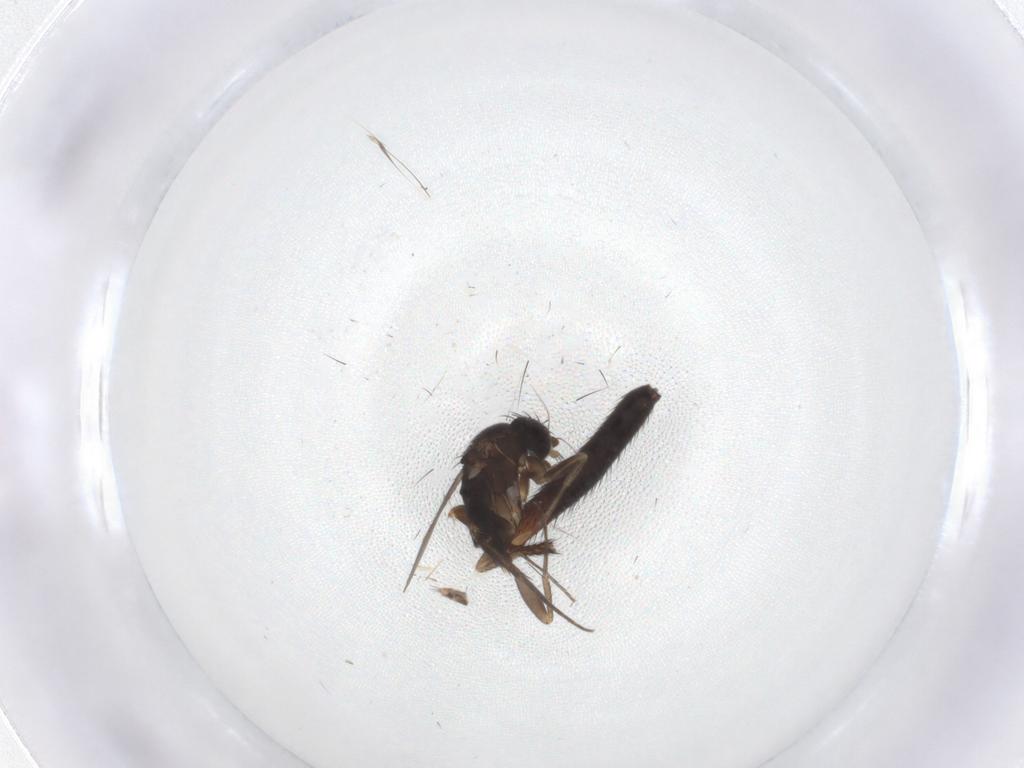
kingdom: Animalia
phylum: Arthropoda
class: Insecta
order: Diptera
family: Phoridae
